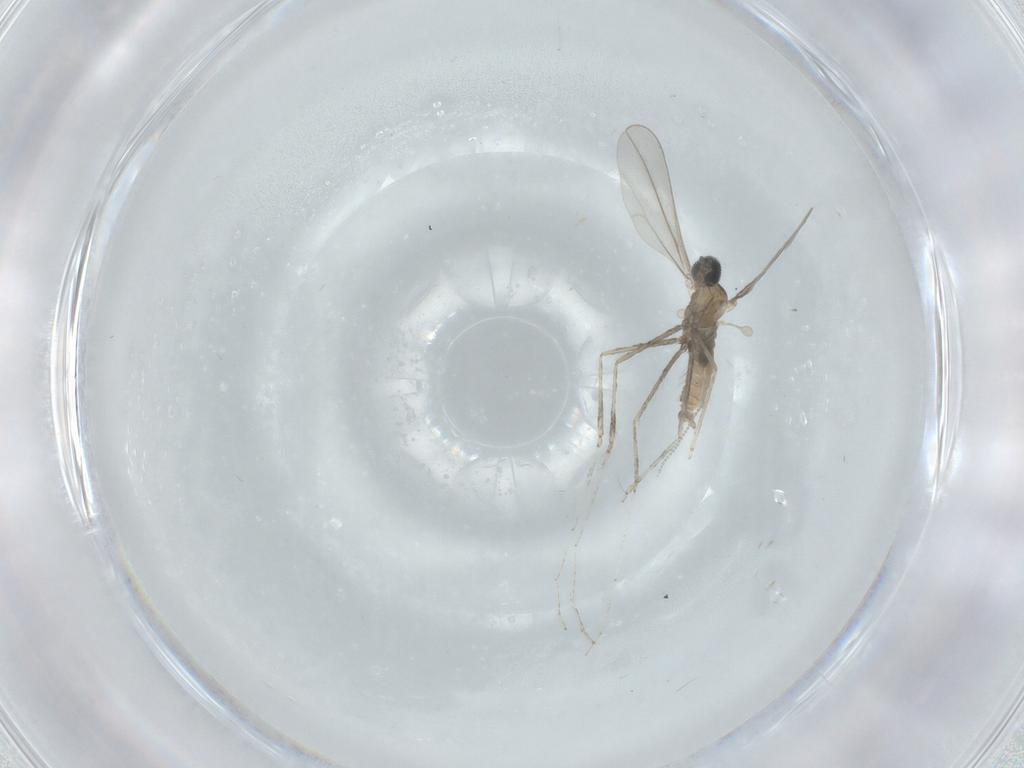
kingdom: Animalia
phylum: Arthropoda
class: Insecta
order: Diptera
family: Cecidomyiidae
